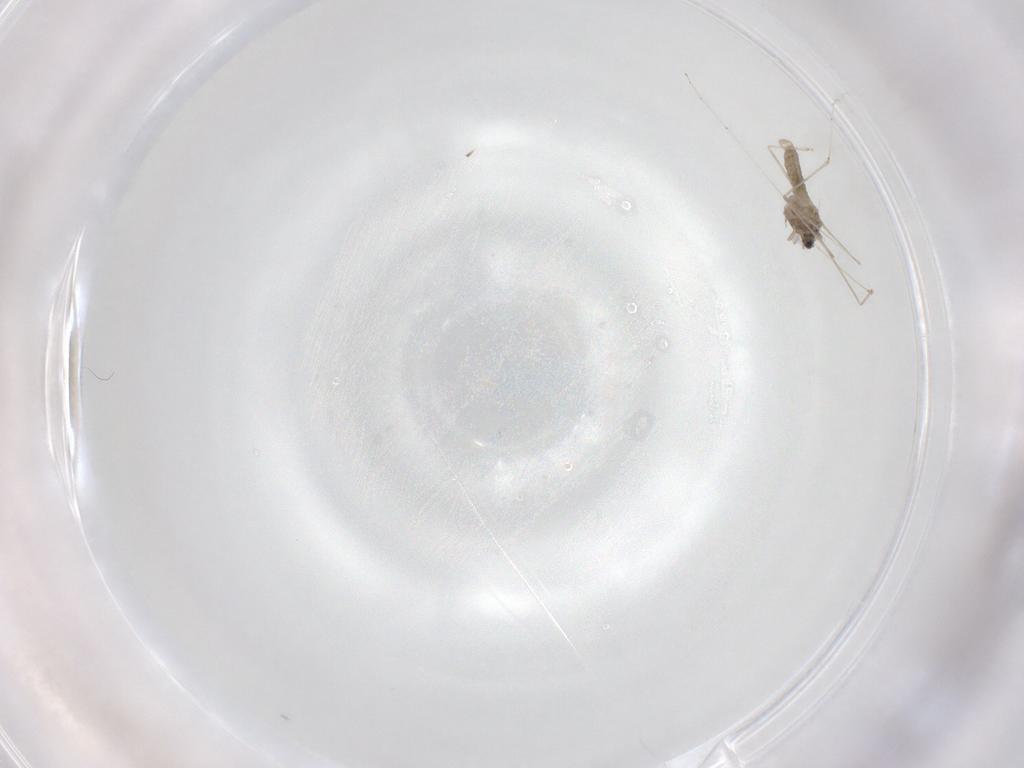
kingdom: Animalia
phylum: Arthropoda
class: Insecta
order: Diptera
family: Cecidomyiidae
